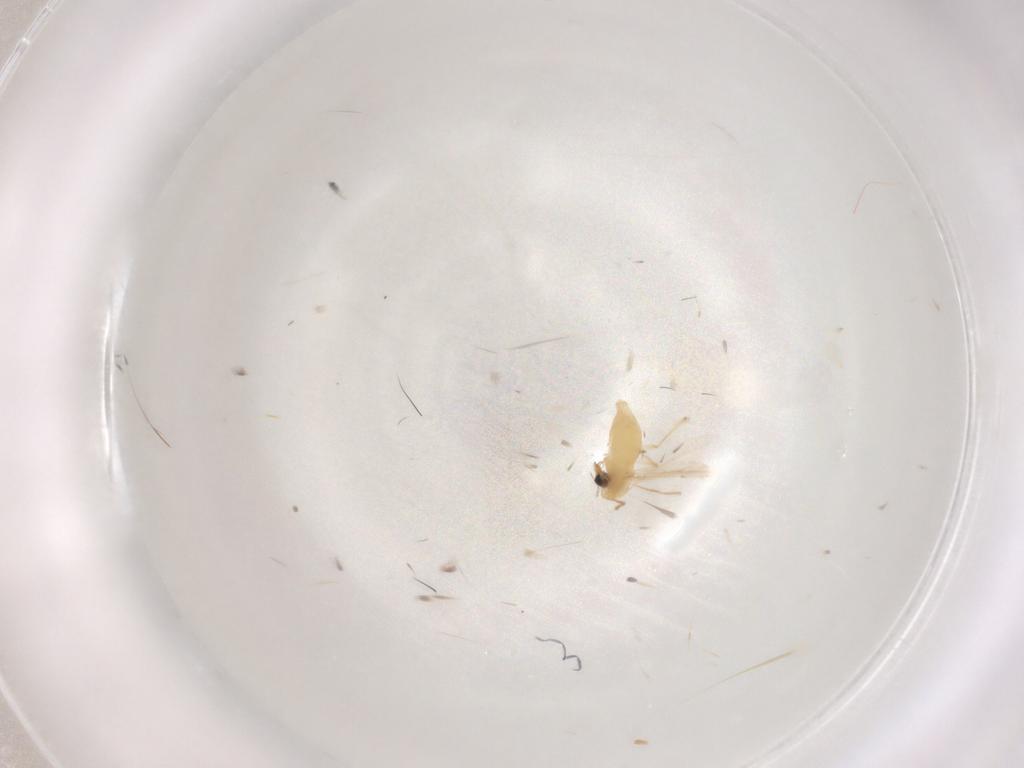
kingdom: Animalia
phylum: Arthropoda
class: Insecta
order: Diptera
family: Chironomidae
